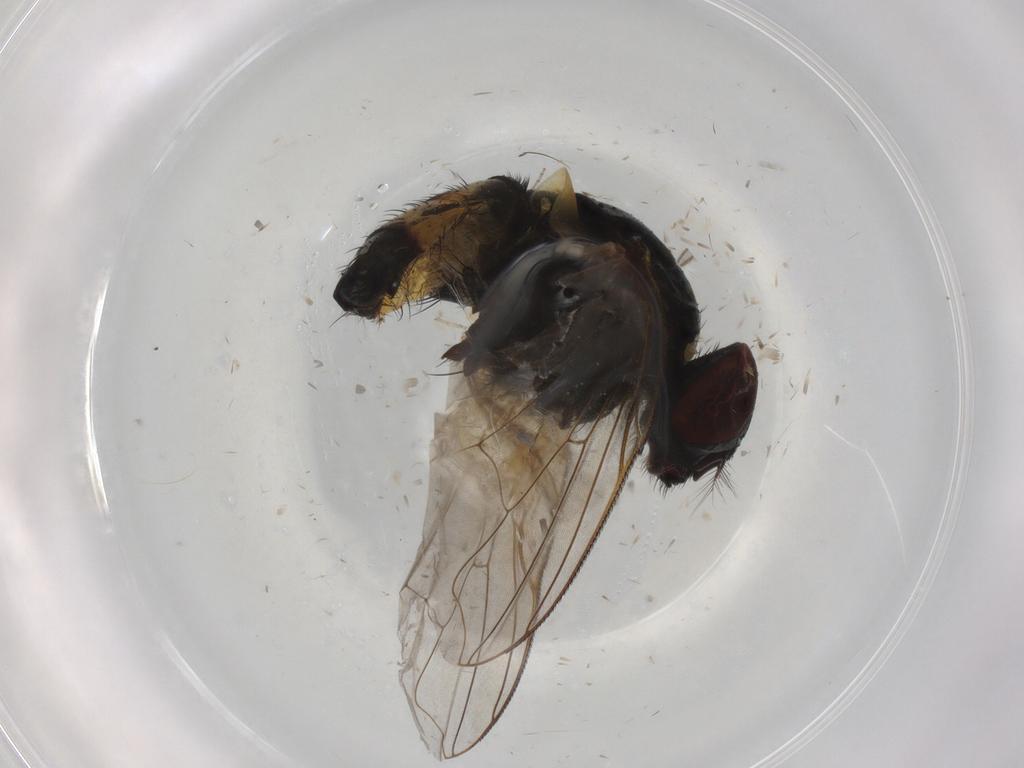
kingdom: Animalia
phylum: Arthropoda
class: Insecta
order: Diptera
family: Muscidae
